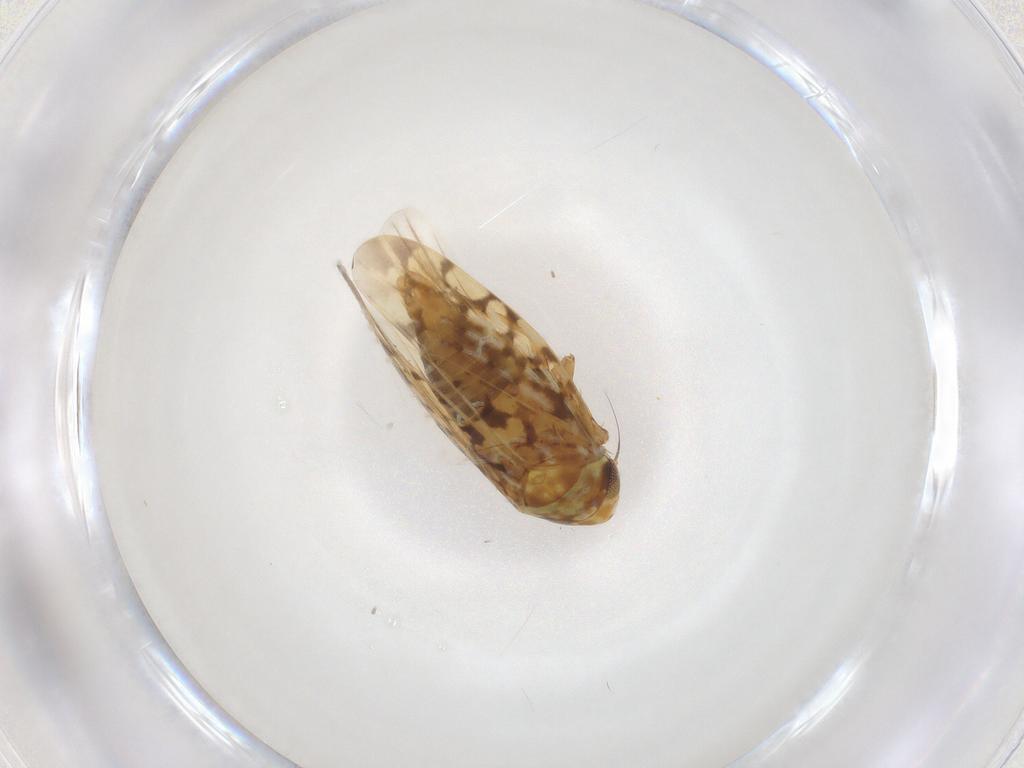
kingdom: Animalia
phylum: Arthropoda
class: Insecta
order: Hemiptera
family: Cicadellidae
